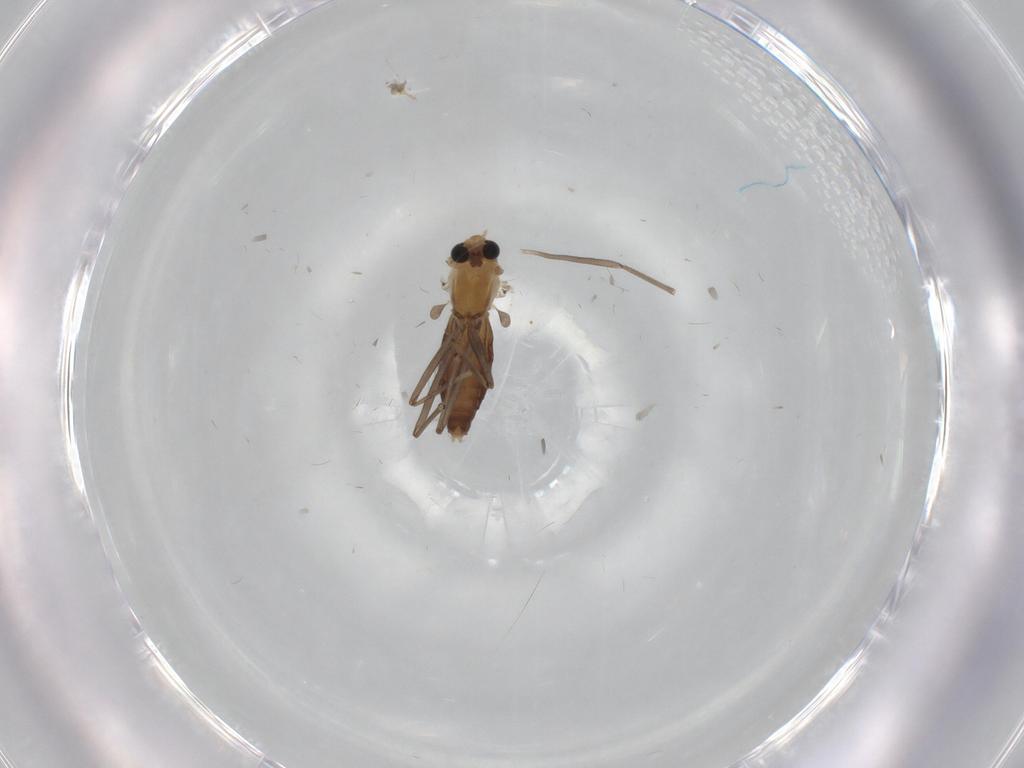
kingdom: Animalia
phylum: Arthropoda
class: Insecta
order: Diptera
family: Chironomidae
